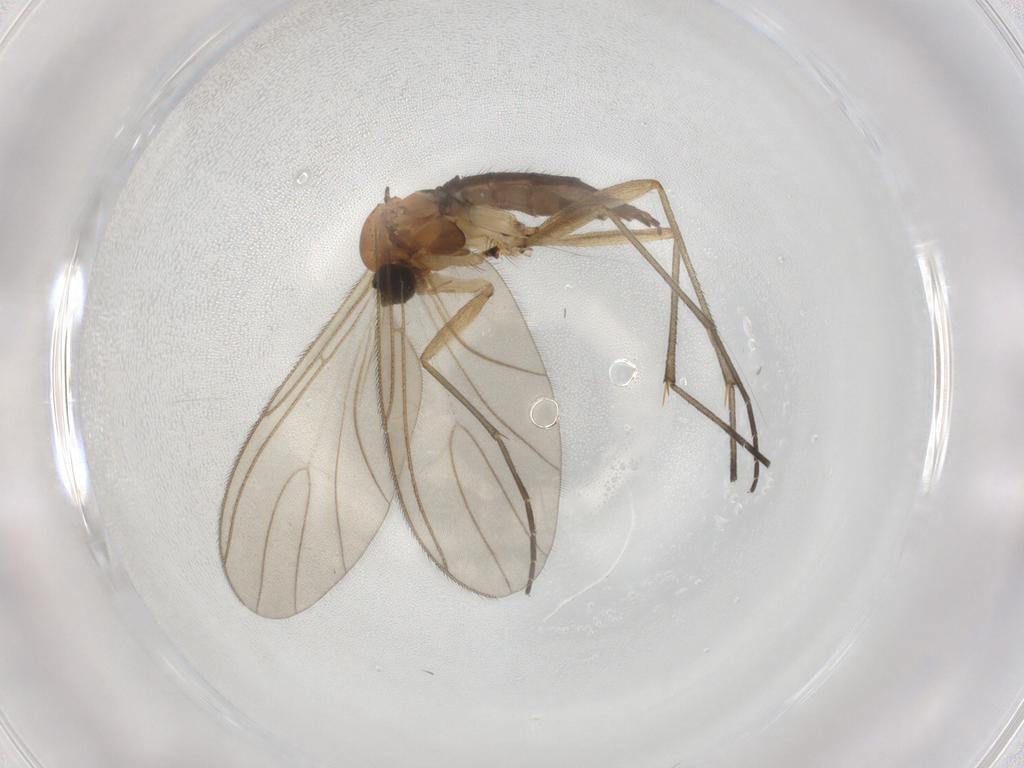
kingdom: Animalia
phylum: Arthropoda
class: Insecta
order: Diptera
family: Sciaridae
